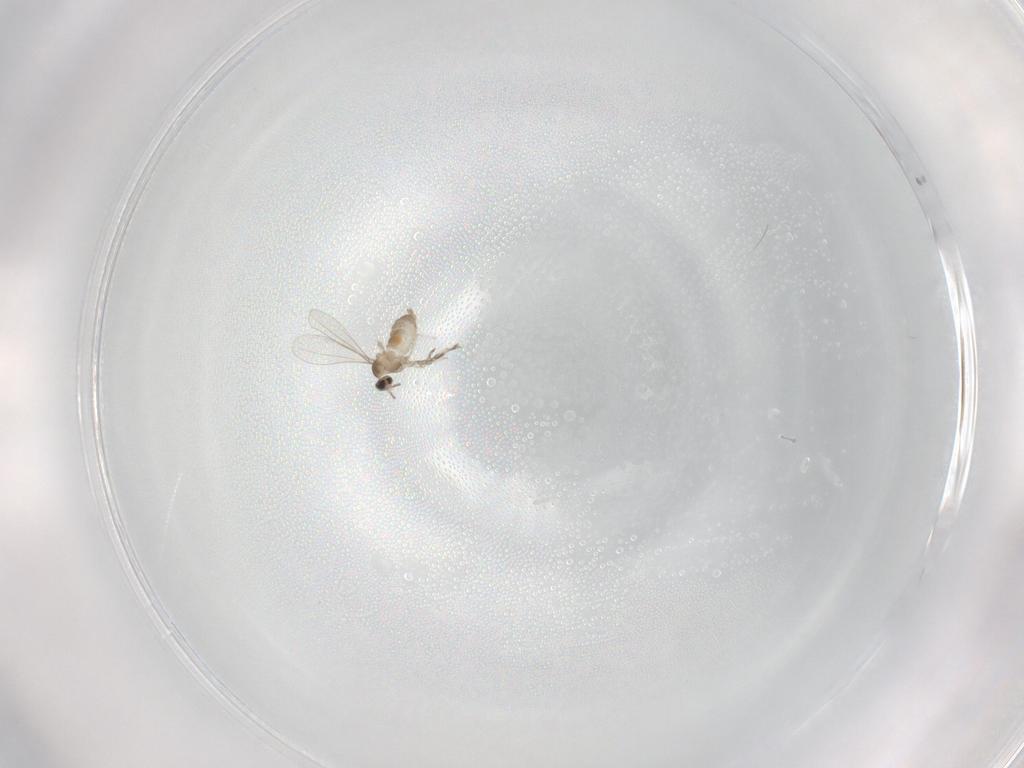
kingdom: Animalia
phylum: Arthropoda
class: Insecta
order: Diptera
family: Cecidomyiidae
